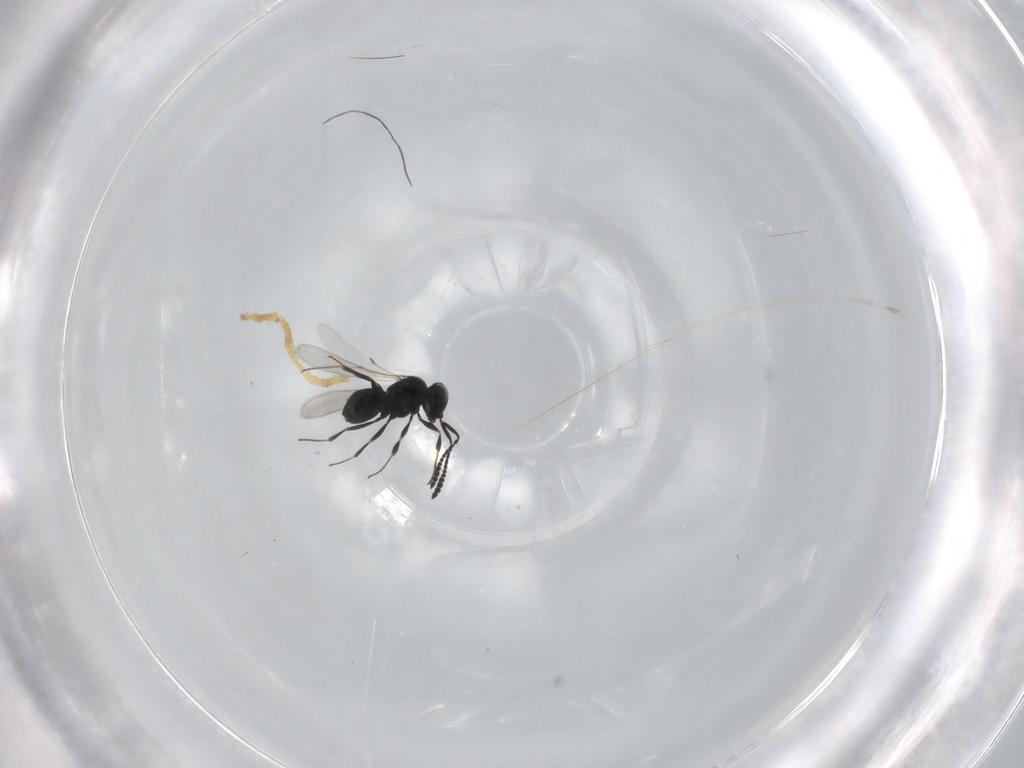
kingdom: Animalia
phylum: Arthropoda
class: Insecta
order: Hymenoptera
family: Scelionidae
